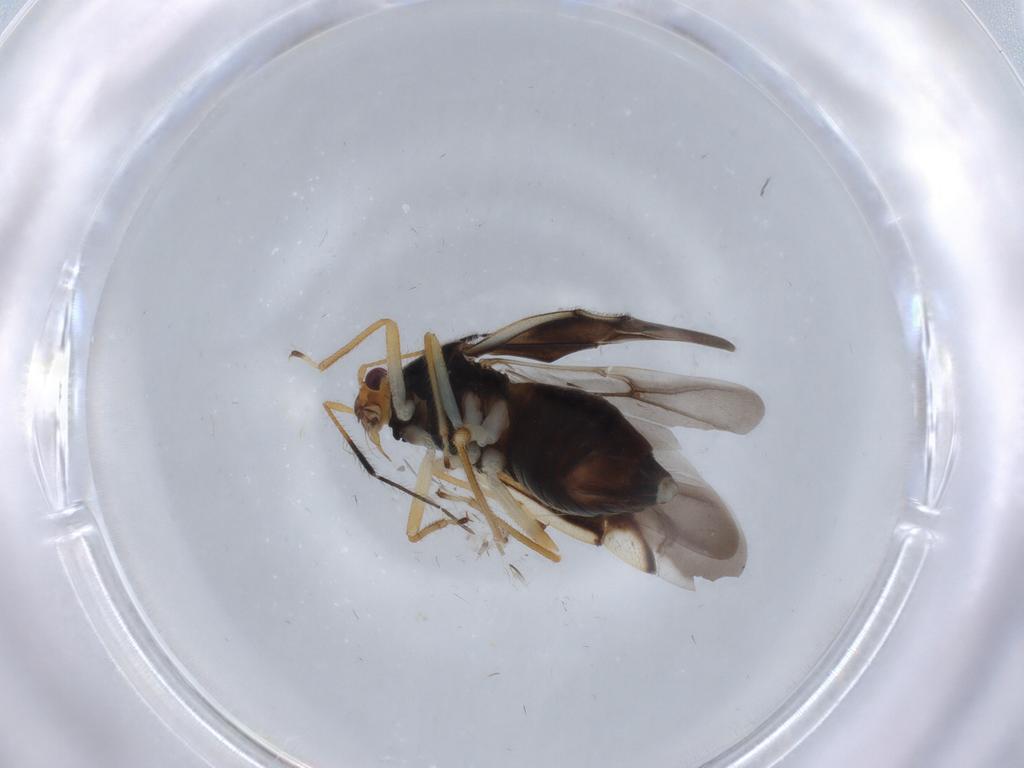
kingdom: Animalia
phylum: Arthropoda
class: Insecta
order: Hemiptera
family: Miridae
